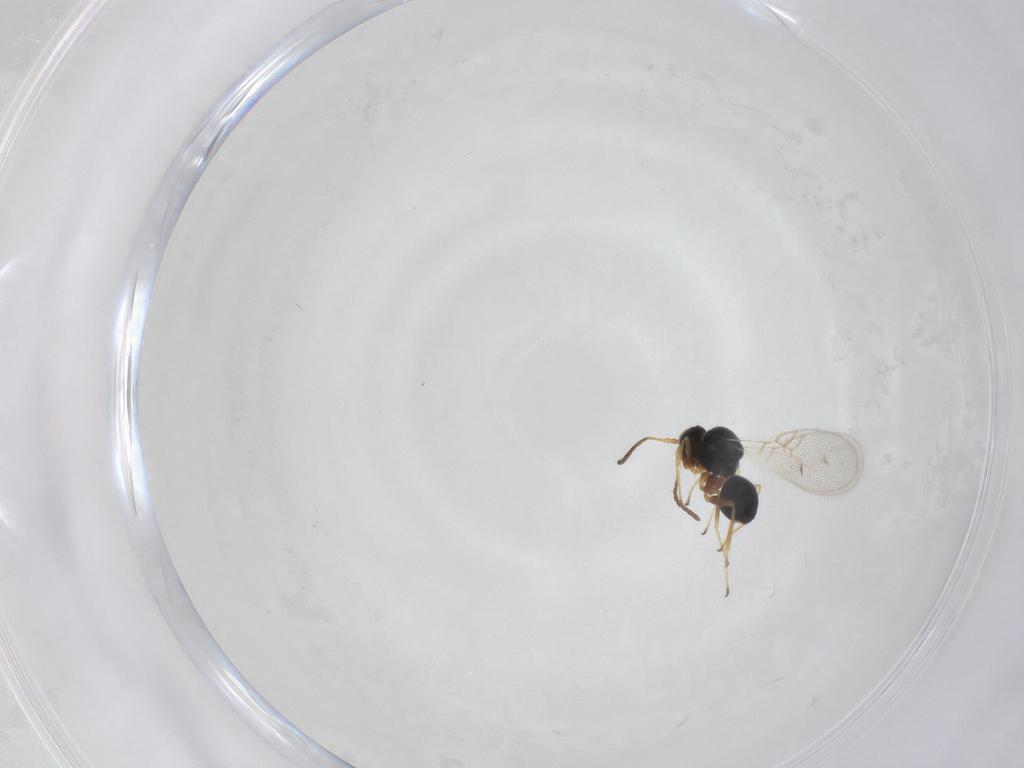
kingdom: Animalia
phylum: Arthropoda
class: Insecta
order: Hymenoptera
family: Figitidae
